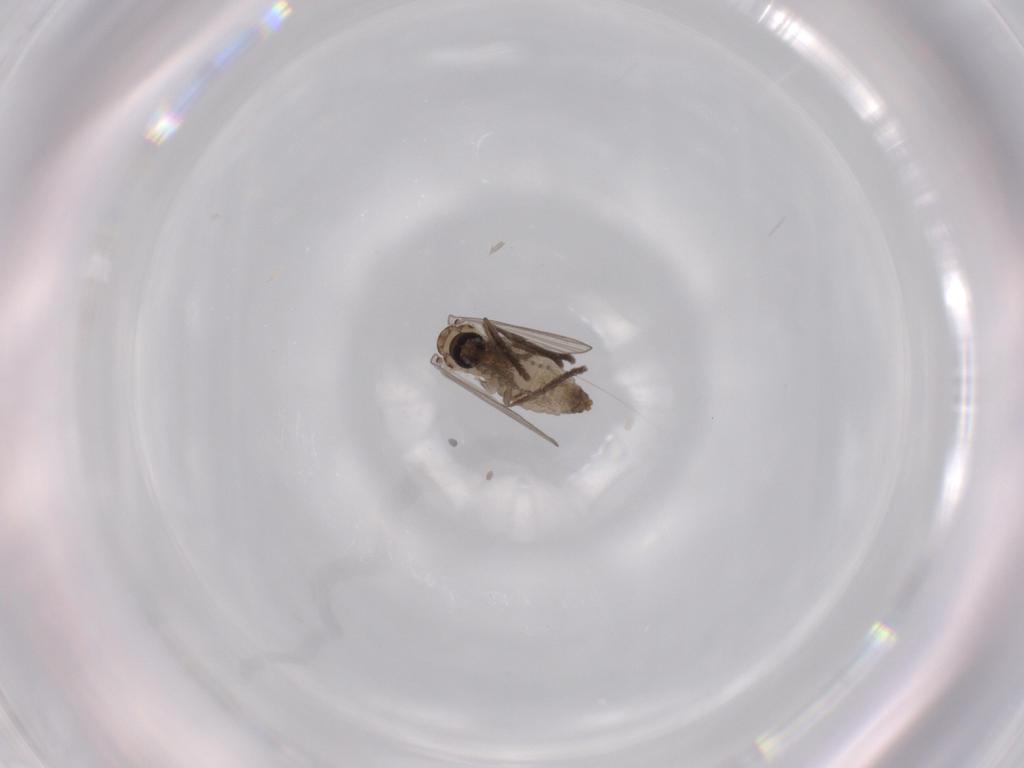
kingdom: Animalia
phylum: Arthropoda
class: Insecta
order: Diptera
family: Psychodidae
